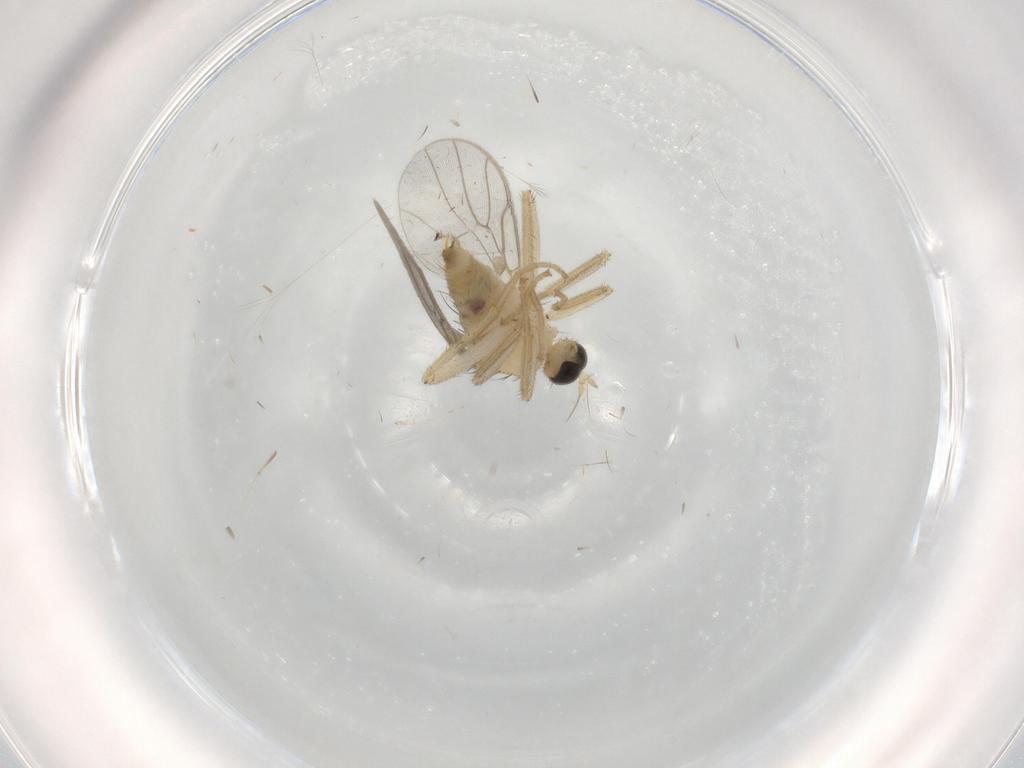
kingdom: Animalia
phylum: Arthropoda
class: Insecta
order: Diptera
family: Hybotidae
